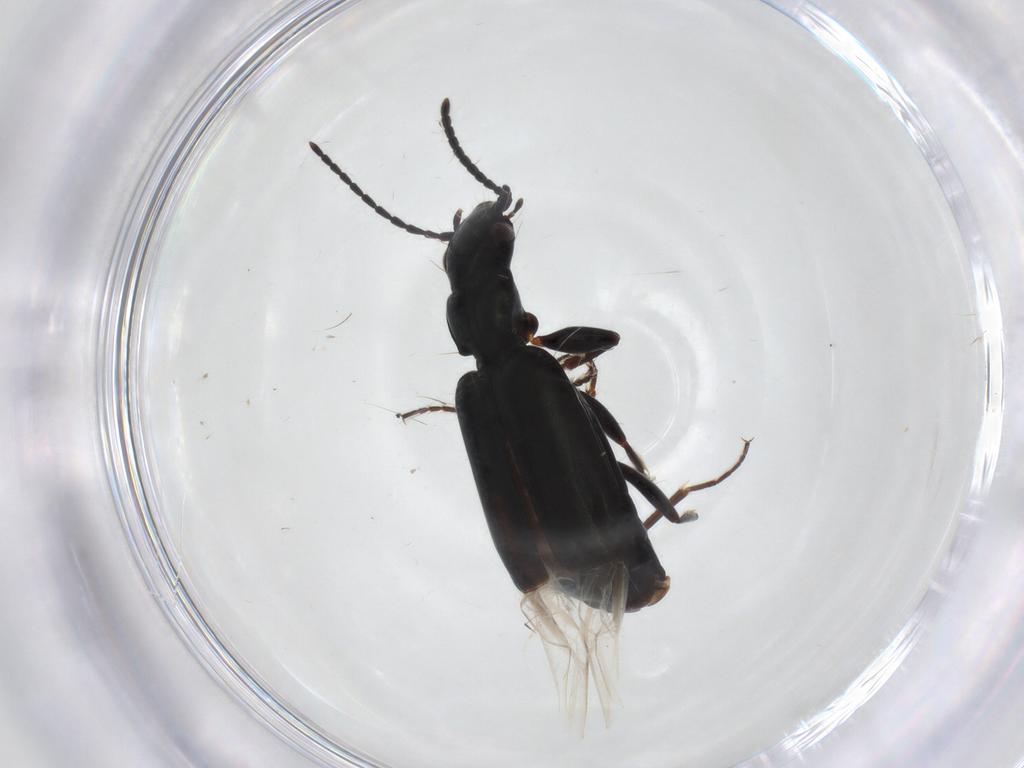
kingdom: Animalia
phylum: Arthropoda
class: Insecta
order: Coleoptera
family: Carabidae
